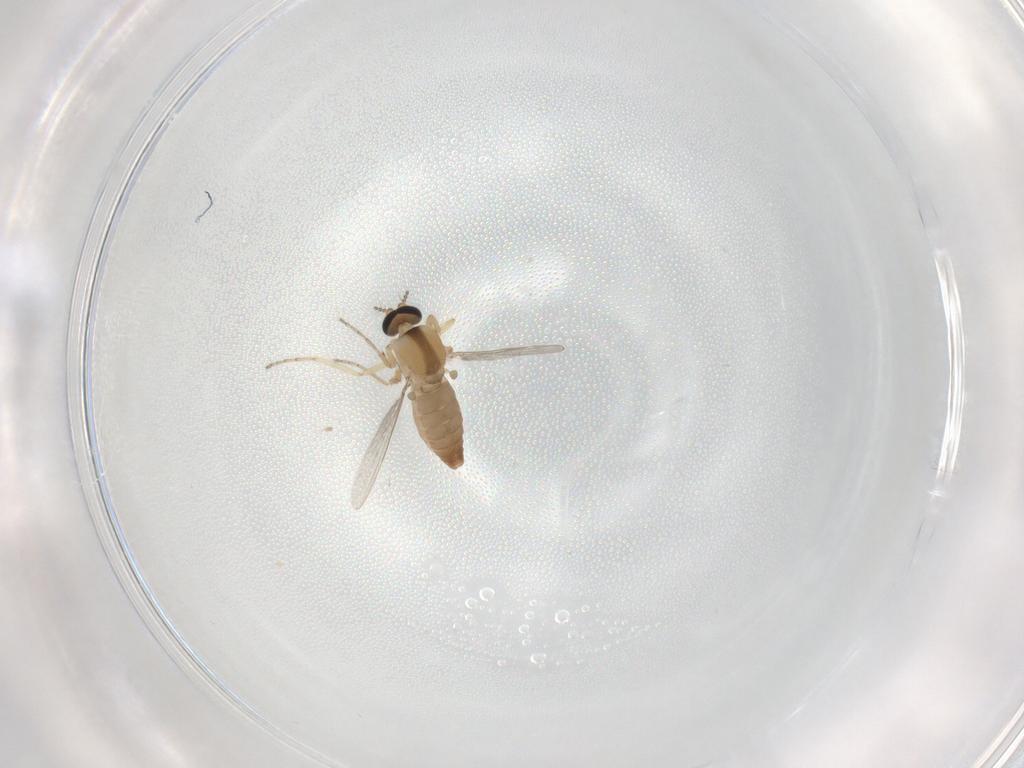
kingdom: Animalia
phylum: Arthropoda
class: Insecta
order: Diptera
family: Ceratopogonidae
